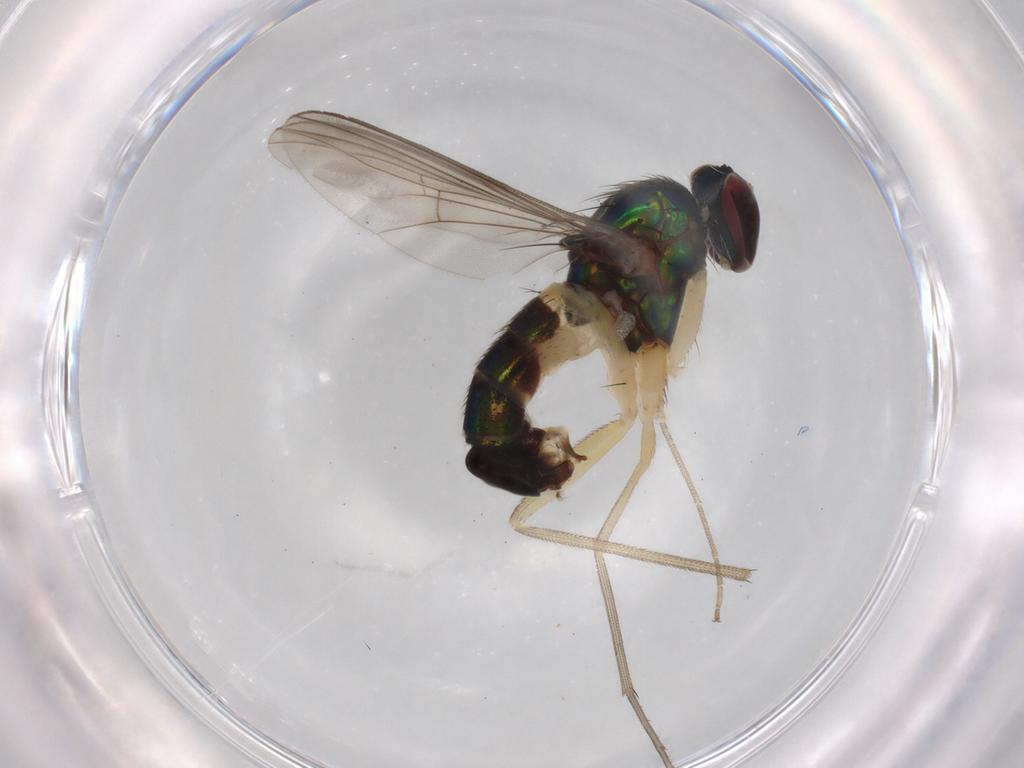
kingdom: Animalia
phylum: Arthropoda
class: Insecta
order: Diptera
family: Dolichopodidae
